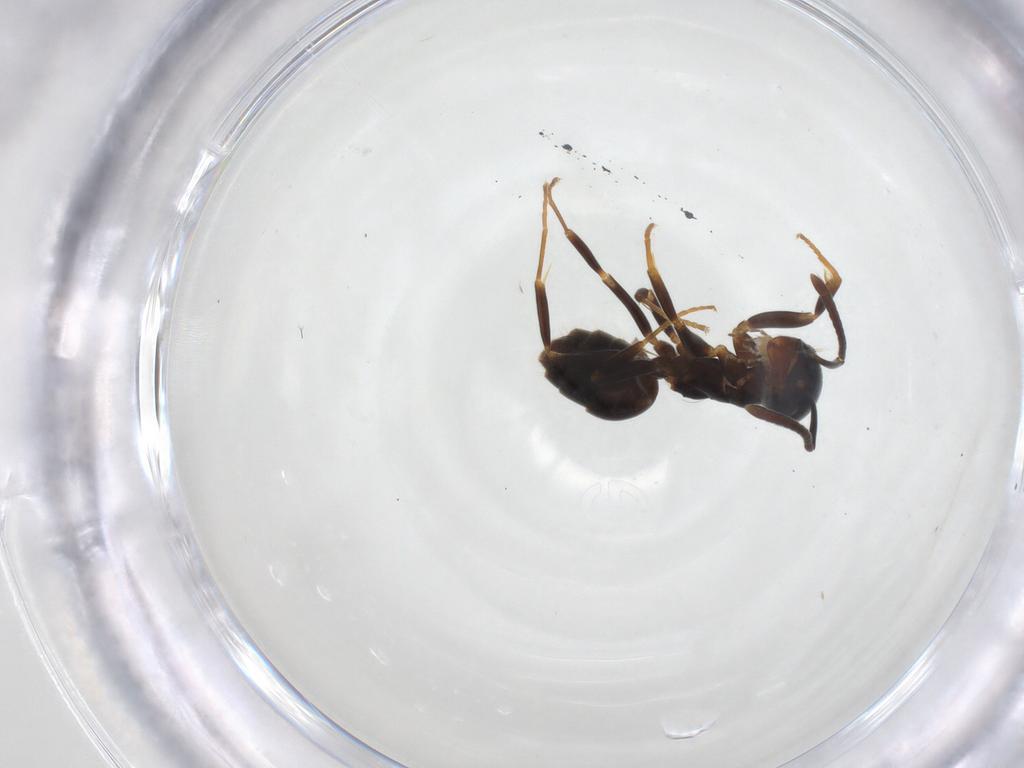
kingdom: Animalia
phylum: Arthropoda
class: Insecta
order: Hymenoptera
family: Formicidae
